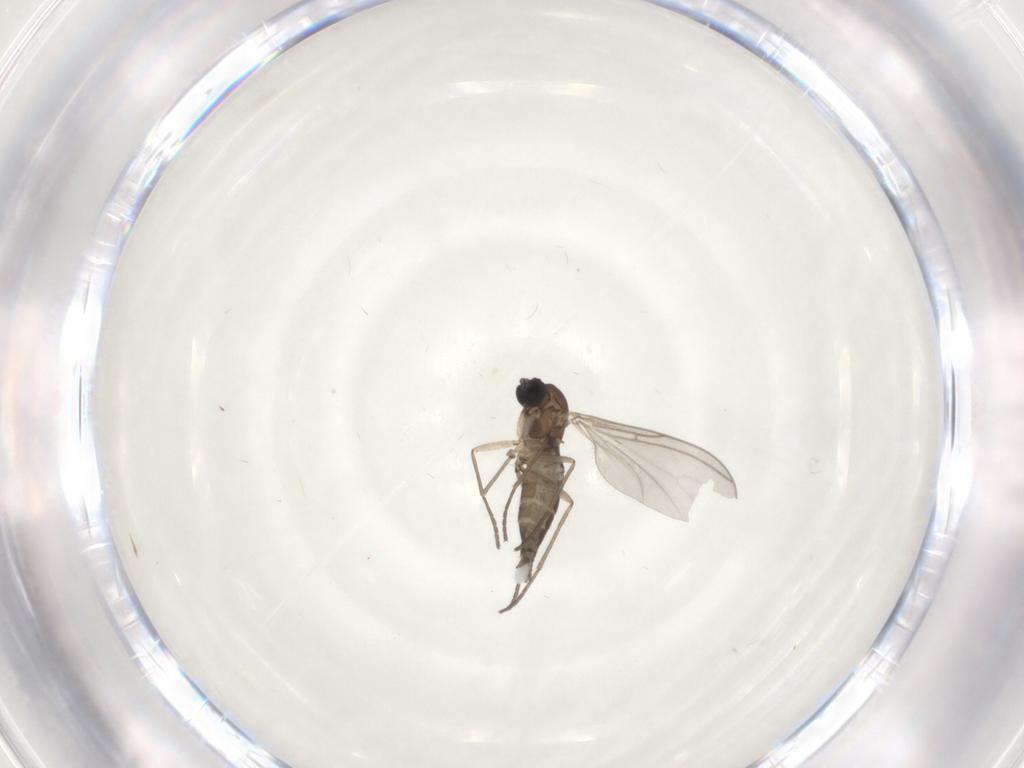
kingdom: Animalia
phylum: Arthropoda
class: Insecta
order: Diptera
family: Sciaridae
